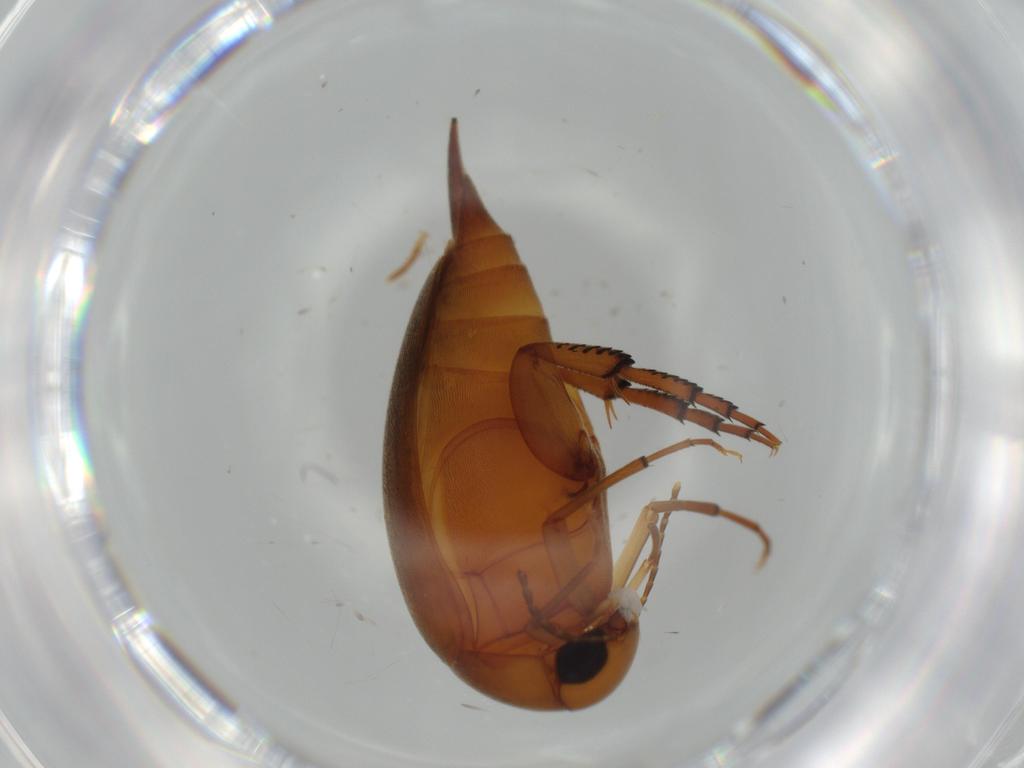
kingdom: Animalia
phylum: Arthropoda
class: Insecta
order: Coleoptera
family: Mordellidae
